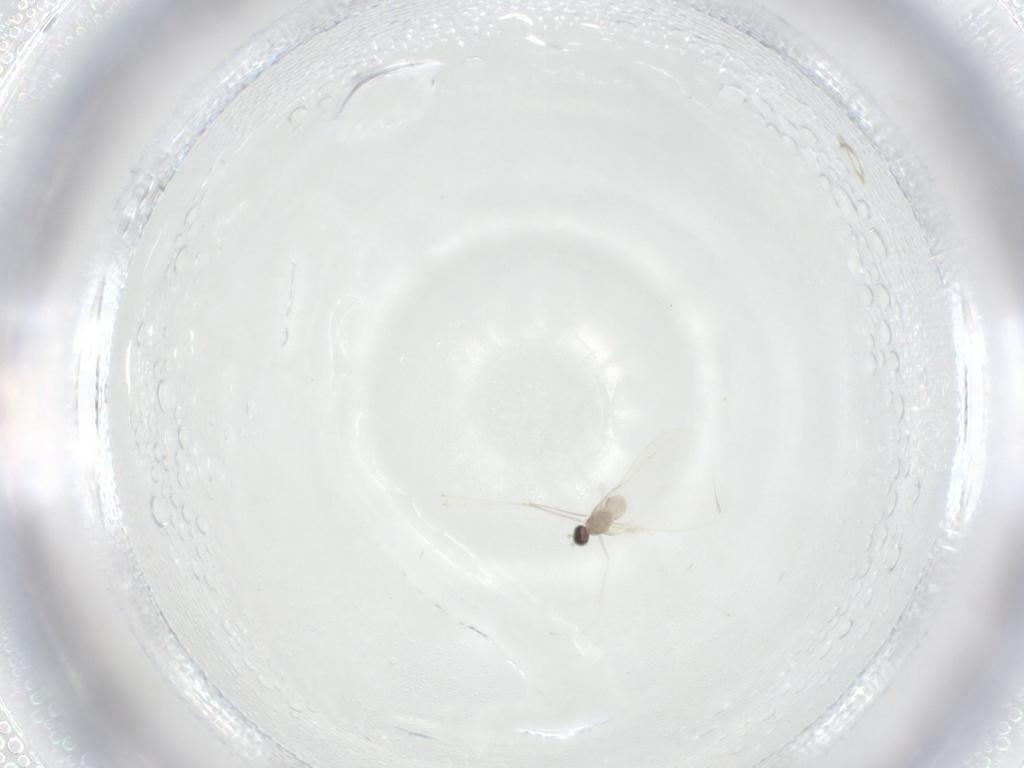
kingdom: Animalia
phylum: Arthropoda
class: Insecta
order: Diptera
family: Cecidomyiidae
